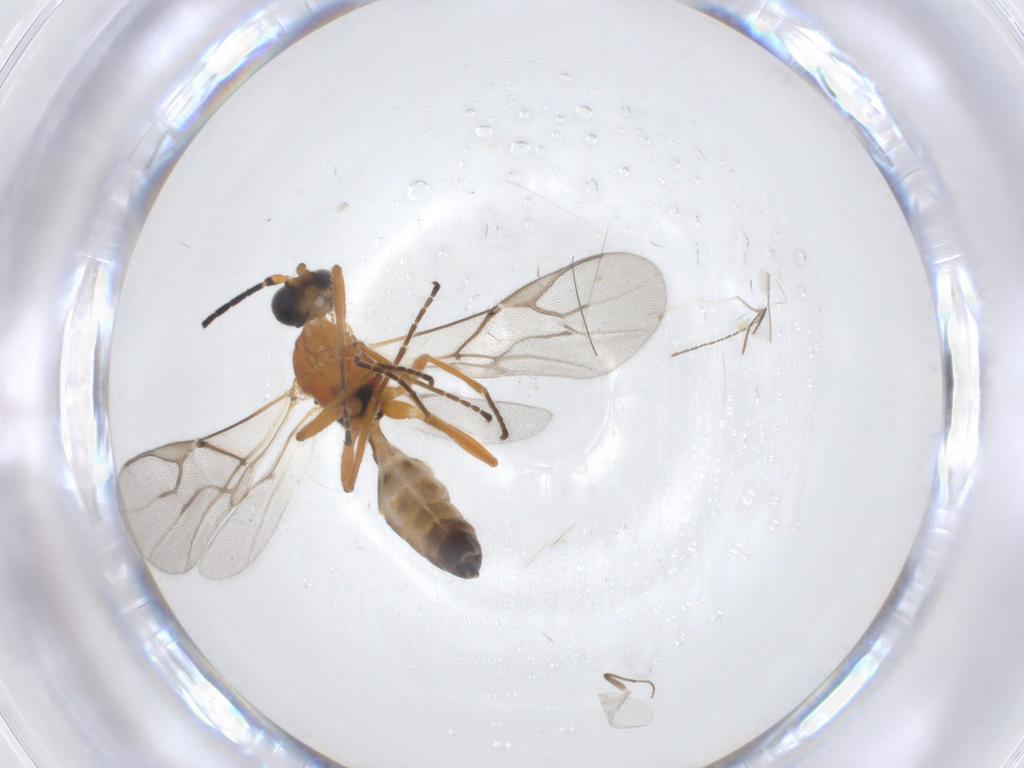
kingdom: Animalia
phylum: Arthropoda
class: Insecta
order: Hymenoptera
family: Braconidae
